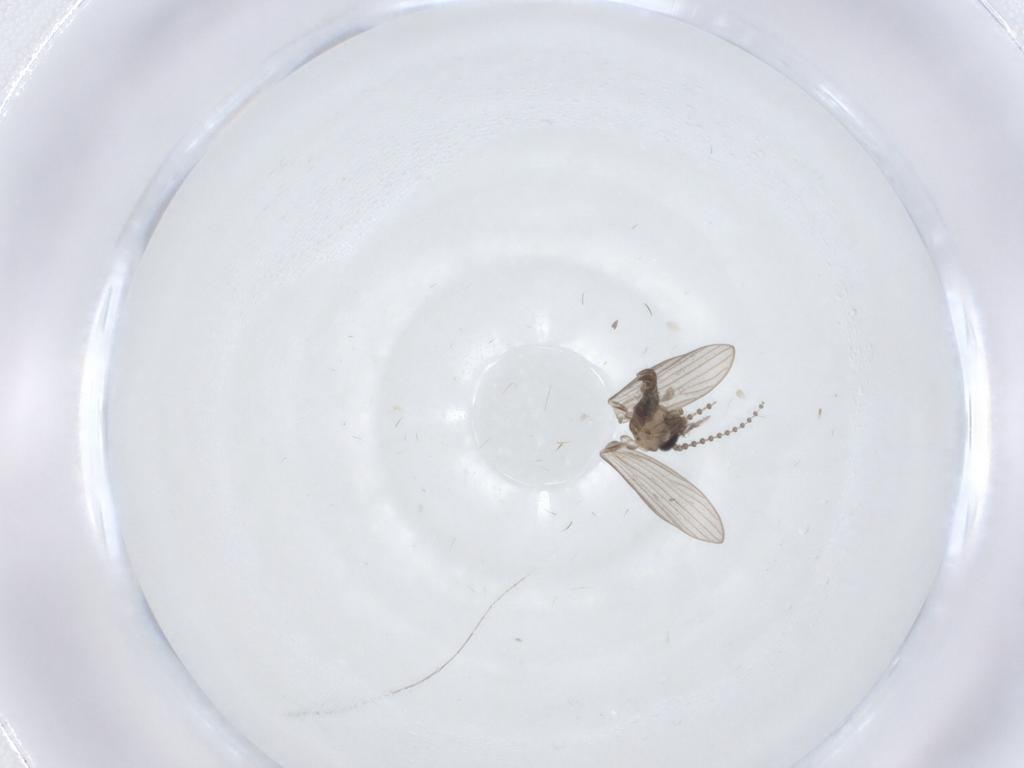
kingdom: Animalia
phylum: Arthropoda
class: Insecta
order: Diptera
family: Psychodidae
